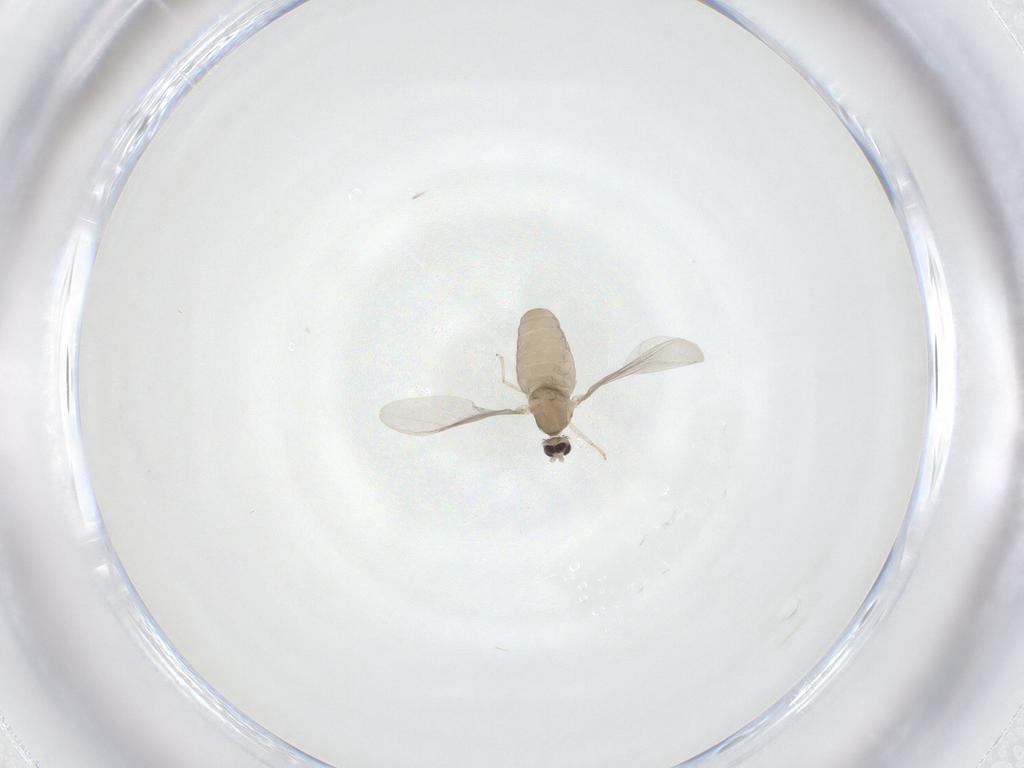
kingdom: Animalia
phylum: Arthropoda
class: Insecta
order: Diptera
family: Cecidomyiidae
